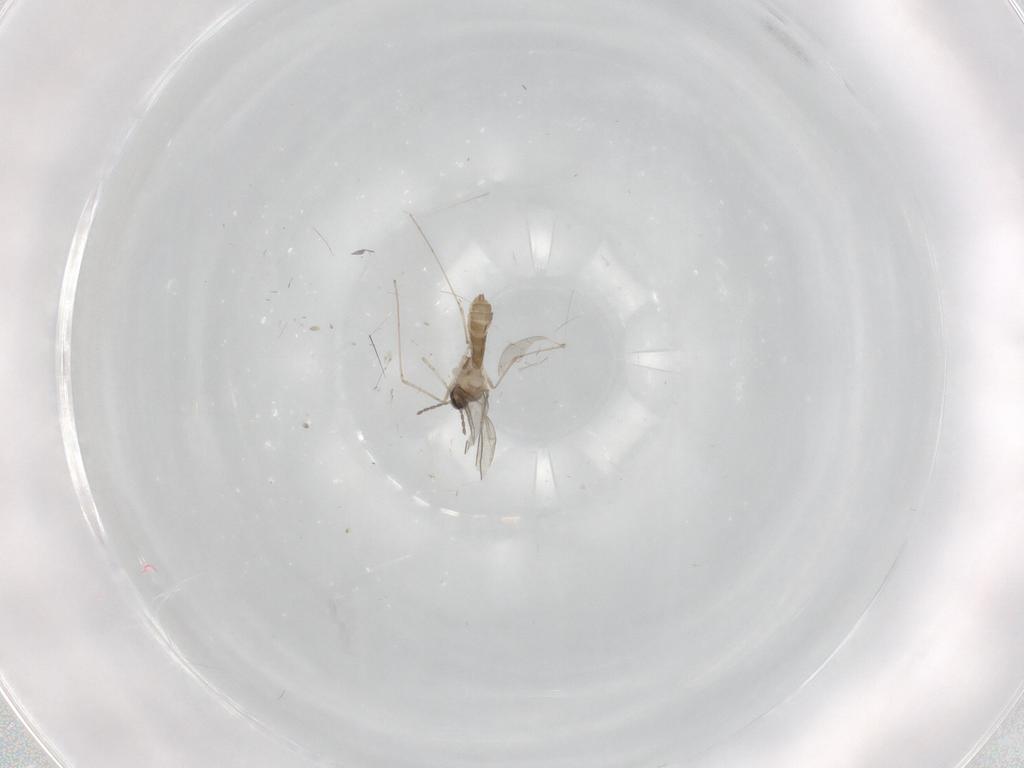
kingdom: Animalia
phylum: Arthropoda
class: Insecta
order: Diptera
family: Cecidomyiidae
